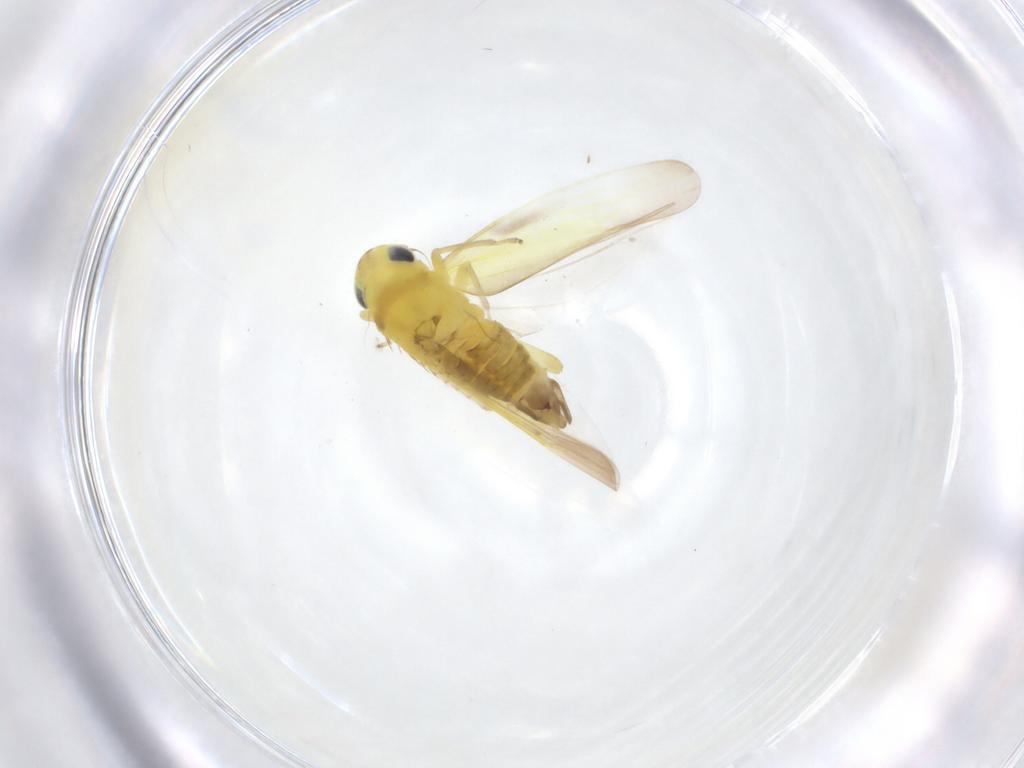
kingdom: Animalia
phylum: Arthropoda
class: Insecta
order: Hemiptera
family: Cicadellidae
